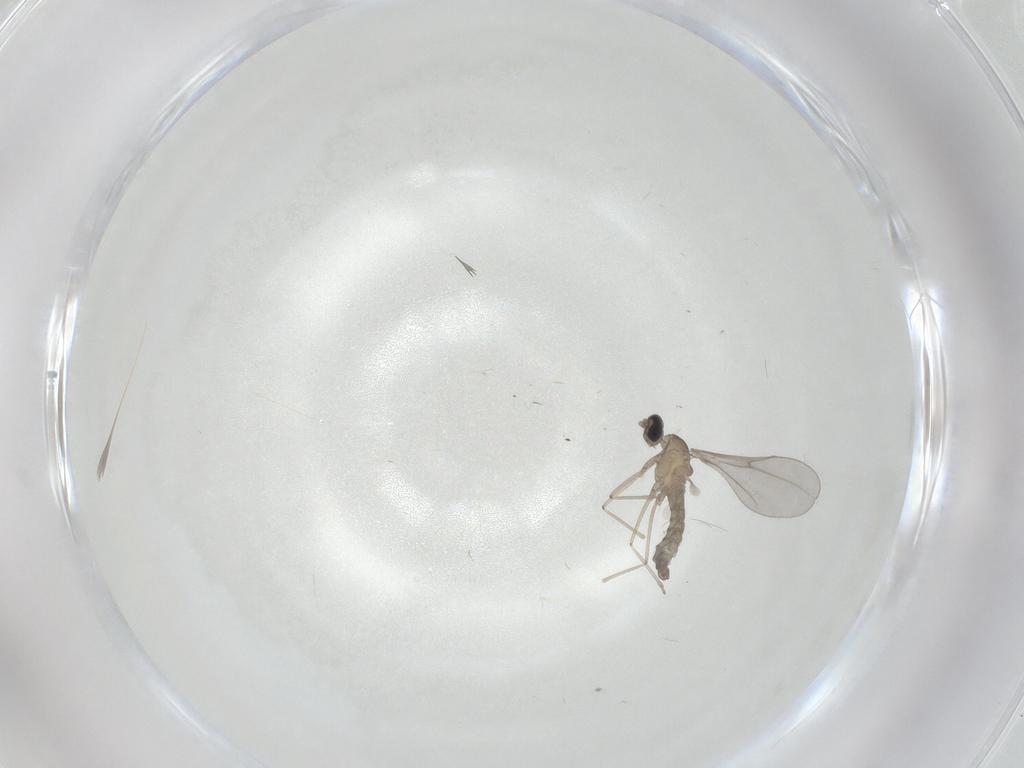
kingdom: Animalia
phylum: Arthropoda
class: Insecta
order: Diptera
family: Cecidomyiidae
